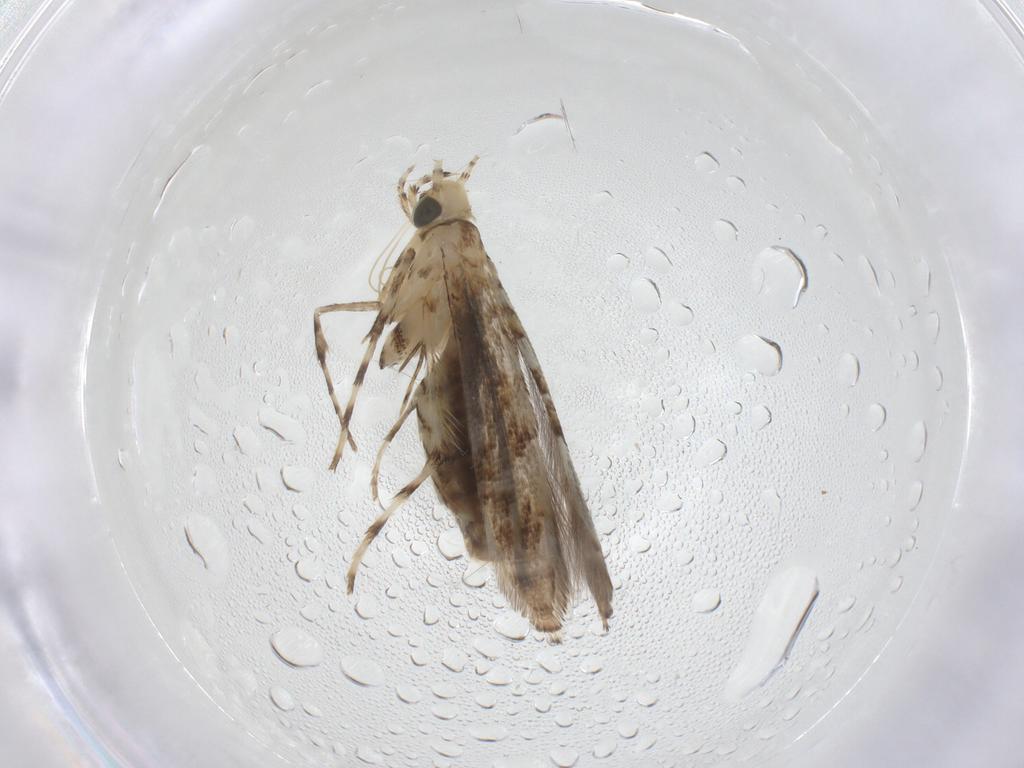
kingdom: Animalia
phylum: Arthropoda
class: Insecta
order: Lepidoptera
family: Gracillariidae
